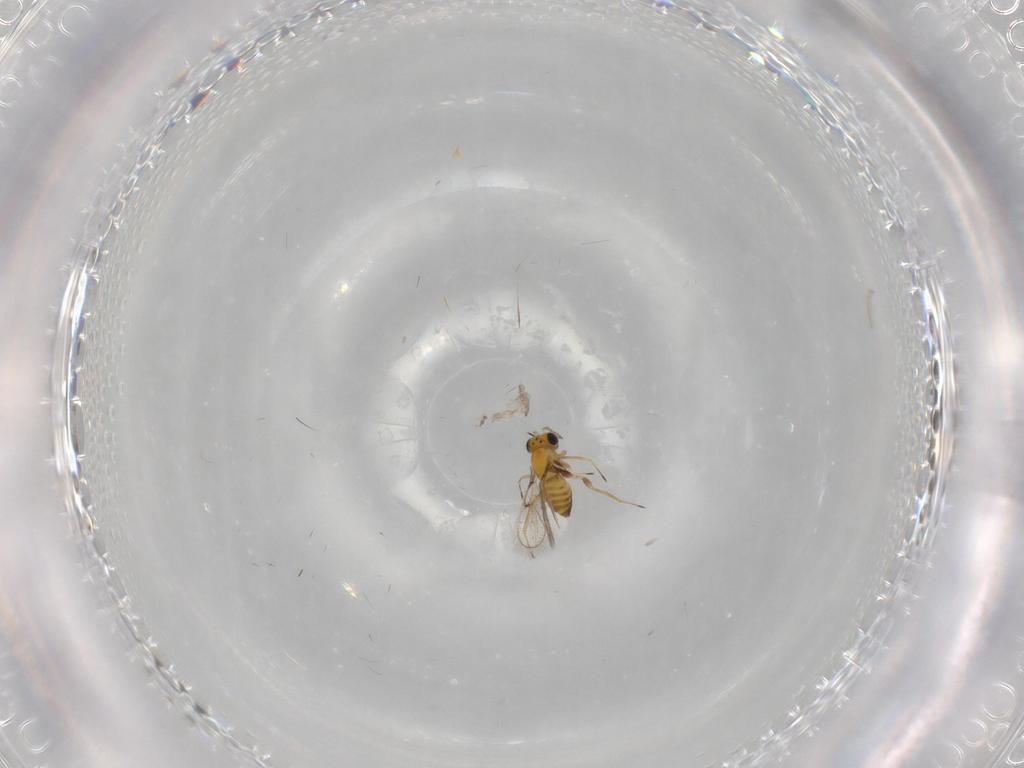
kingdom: Animalia
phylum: Arthropoda
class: Insecta
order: Hymenoptera
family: Trichogrammatidae
